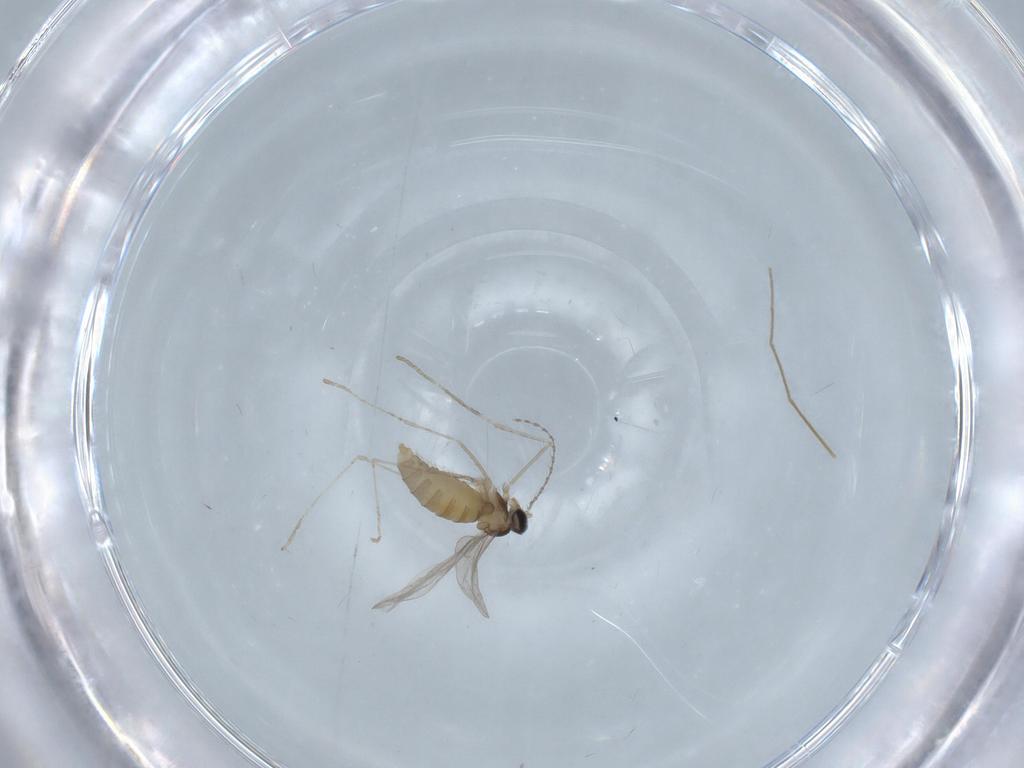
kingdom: Animalia
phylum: Arthropoda
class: Insecta
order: Diptera
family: Cecidomyiidae
